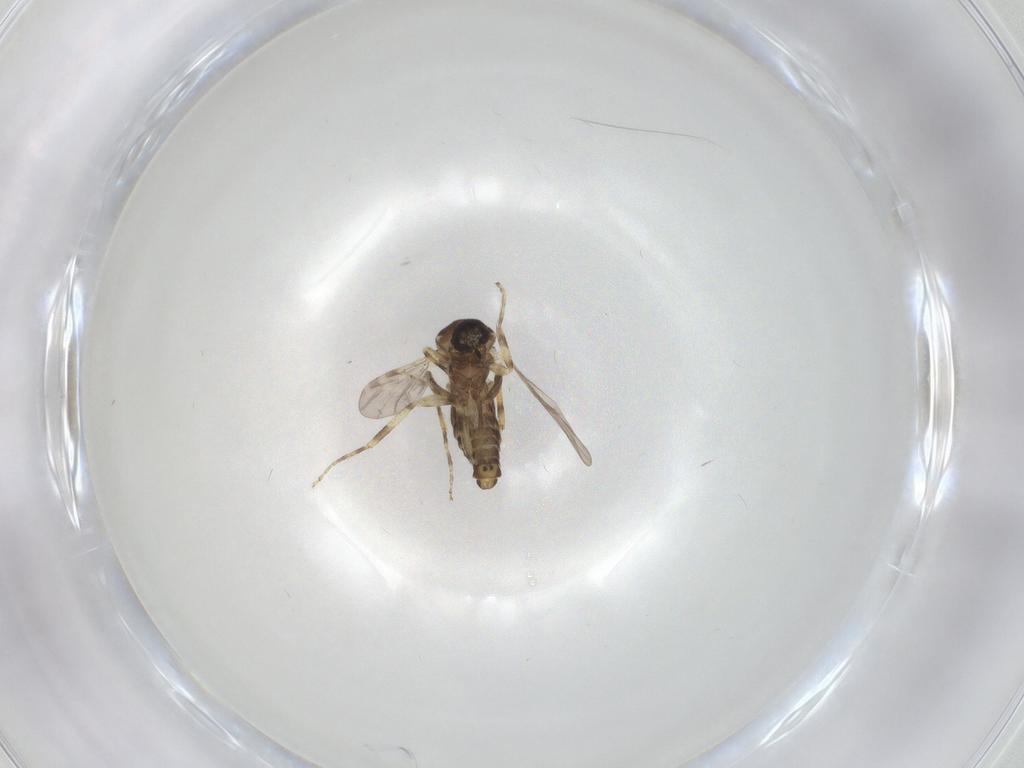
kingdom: Animalia
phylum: Arthropoda
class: Insecta
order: Diptera
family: Ceratopogonidae
